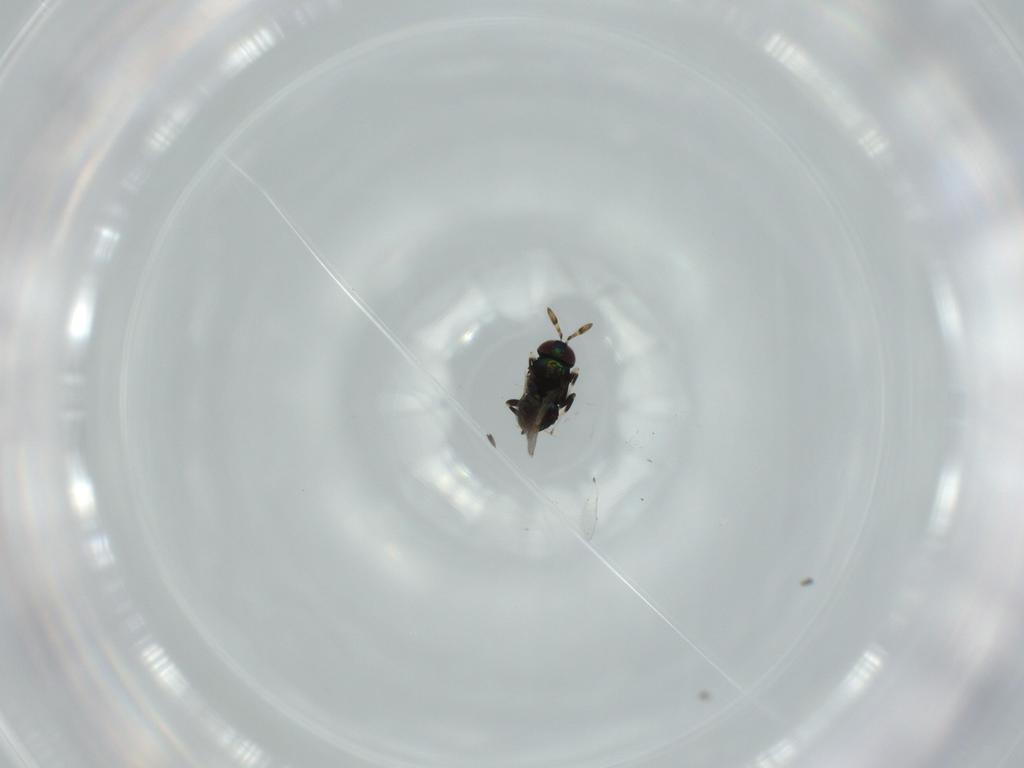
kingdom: Animalia
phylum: Arthropoda
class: Insecta
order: Hymenoptera
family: Encyrtidae
